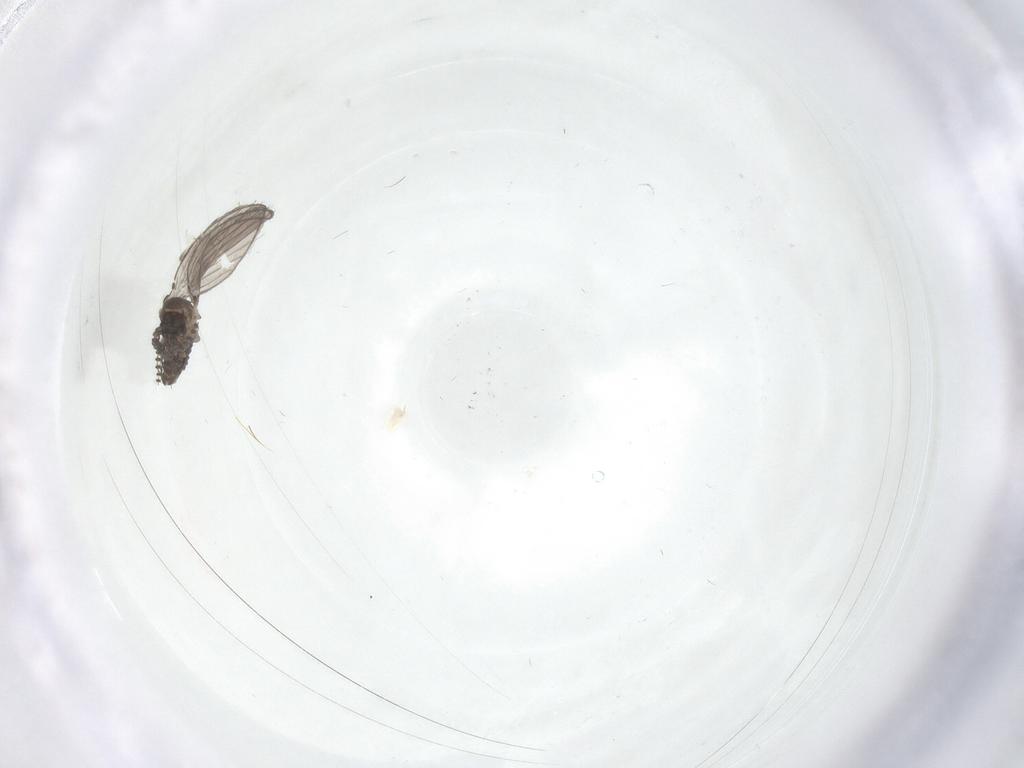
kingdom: Animalia
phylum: Arthropoda
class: Insecta
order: Diptera
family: Psychodidae
